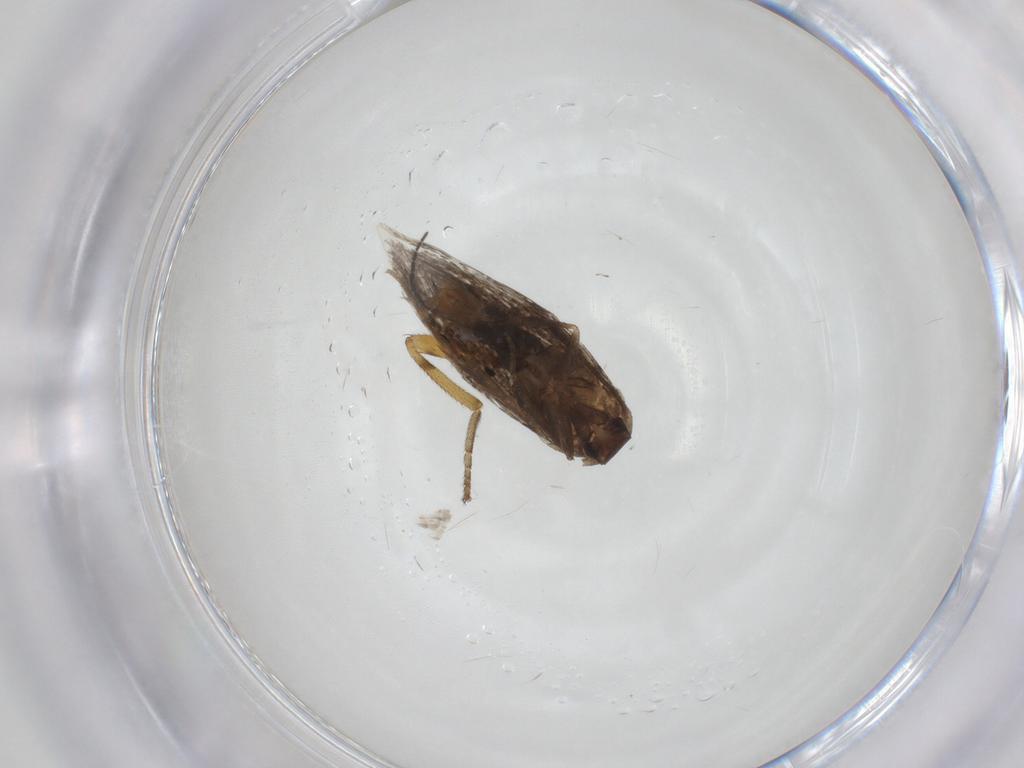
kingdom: Animalia
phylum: Arthropoda
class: Insecta
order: Lepidoptera
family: Elachistidae
